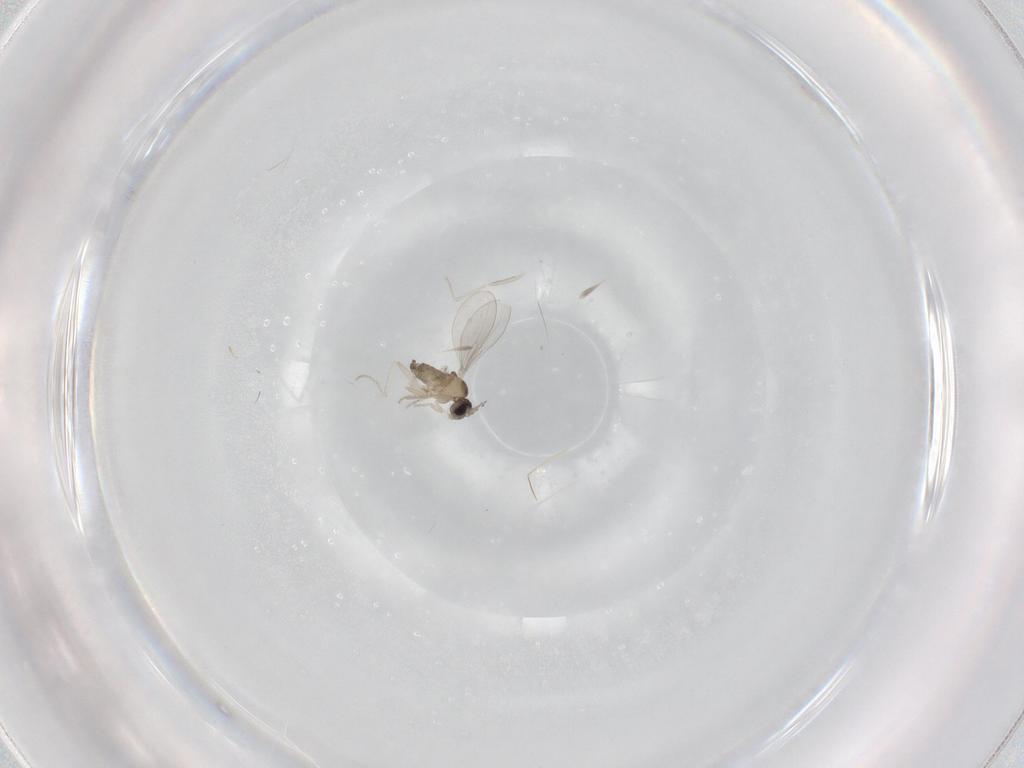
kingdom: Animalia
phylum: Arthropoda
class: Insecta
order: Diptera
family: Cecidomyiidae
